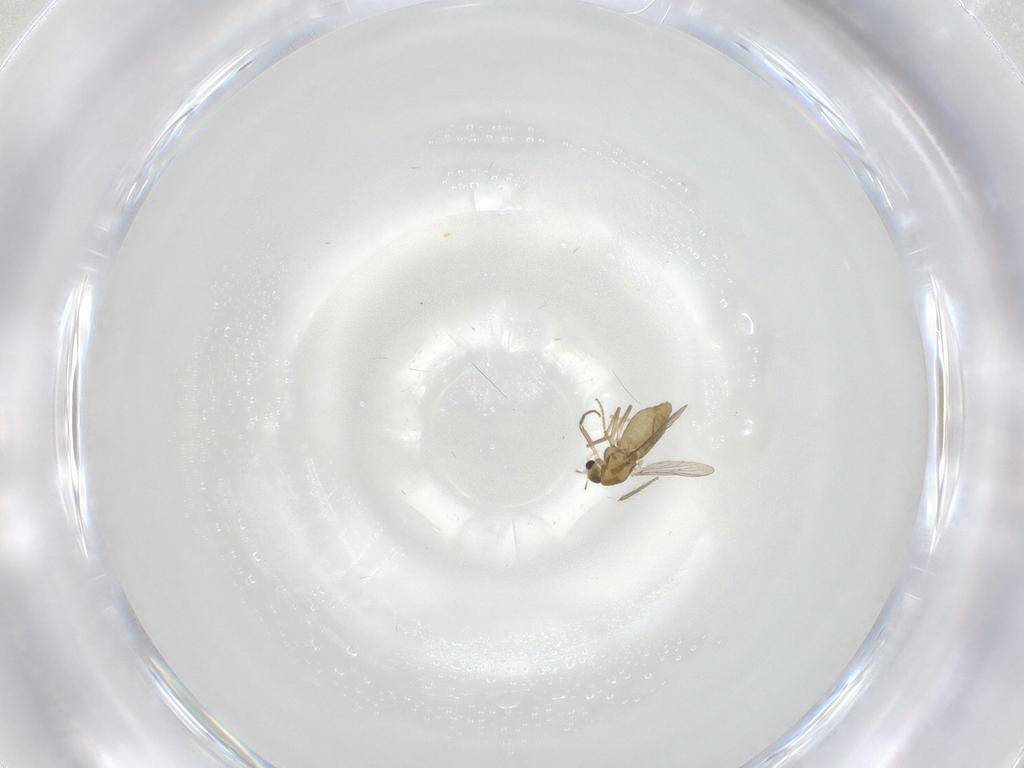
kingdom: Animalia
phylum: Arthropoda
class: Insecta
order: Diptera
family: Chironomidae
